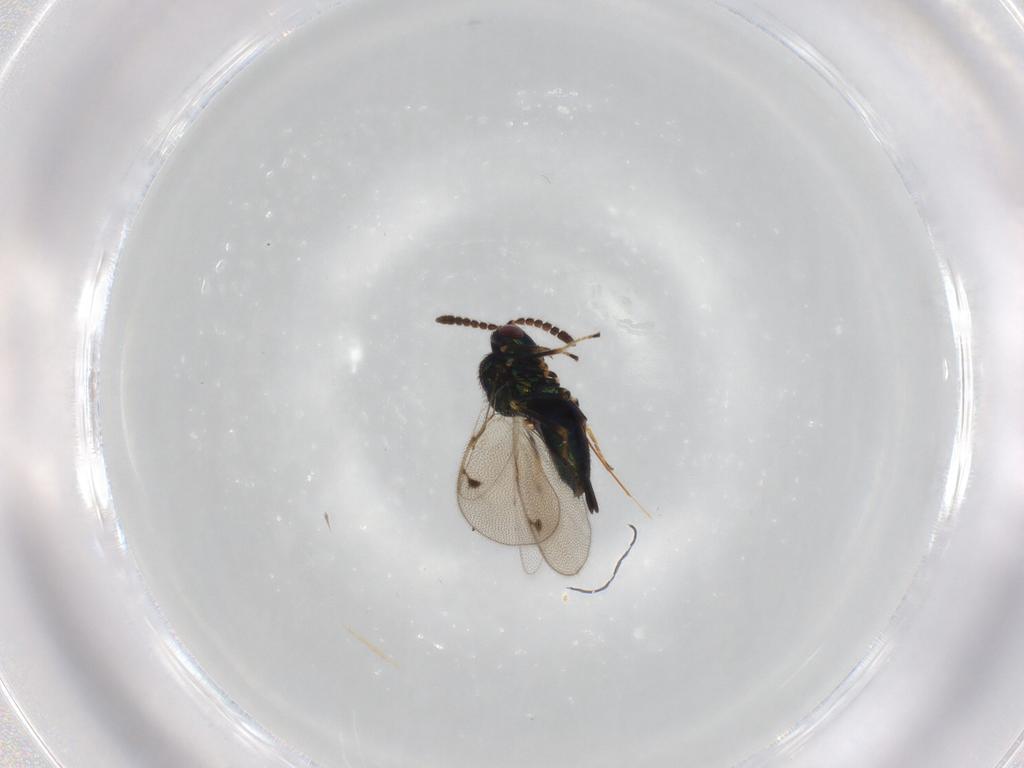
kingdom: Animalia
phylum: Arthropoda
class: Insecta
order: Hymenoptera
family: Pirenidae
